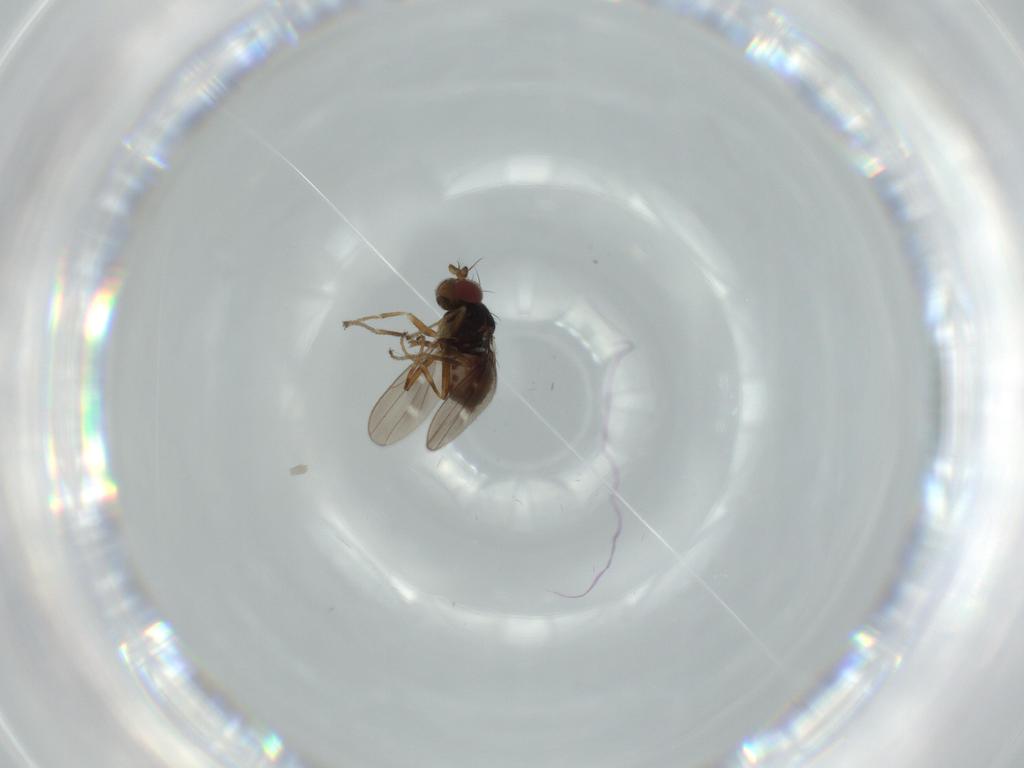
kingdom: Animalia
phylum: Arthropoda
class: Insecta
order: Diptera
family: Ephydridae
